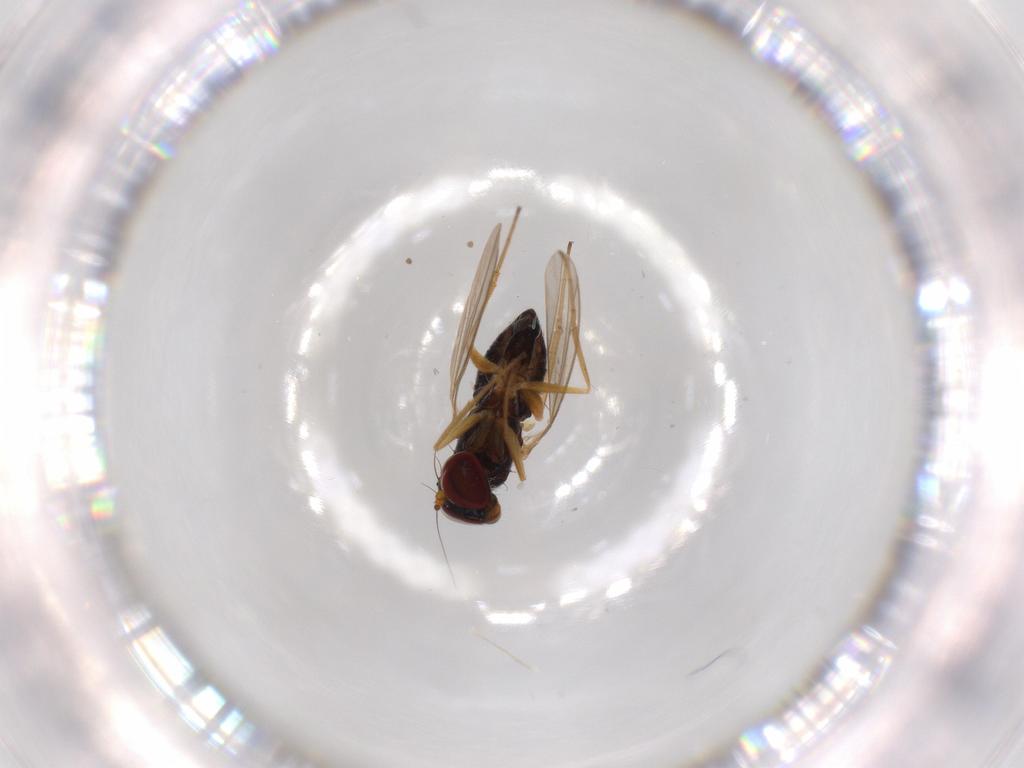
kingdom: Animalia
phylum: Arthropoda
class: Insecta
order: Diptera
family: Dolichopodidae
